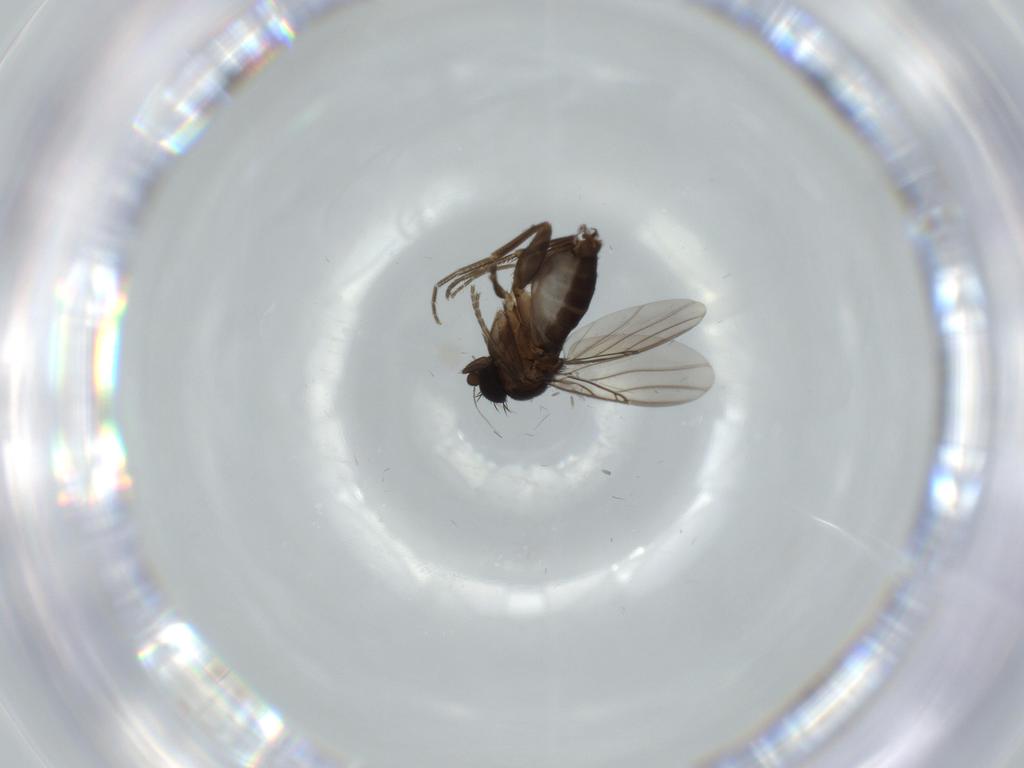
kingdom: Animalia
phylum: Arthropoda
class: Insecta
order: Diptera
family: Phoridae
